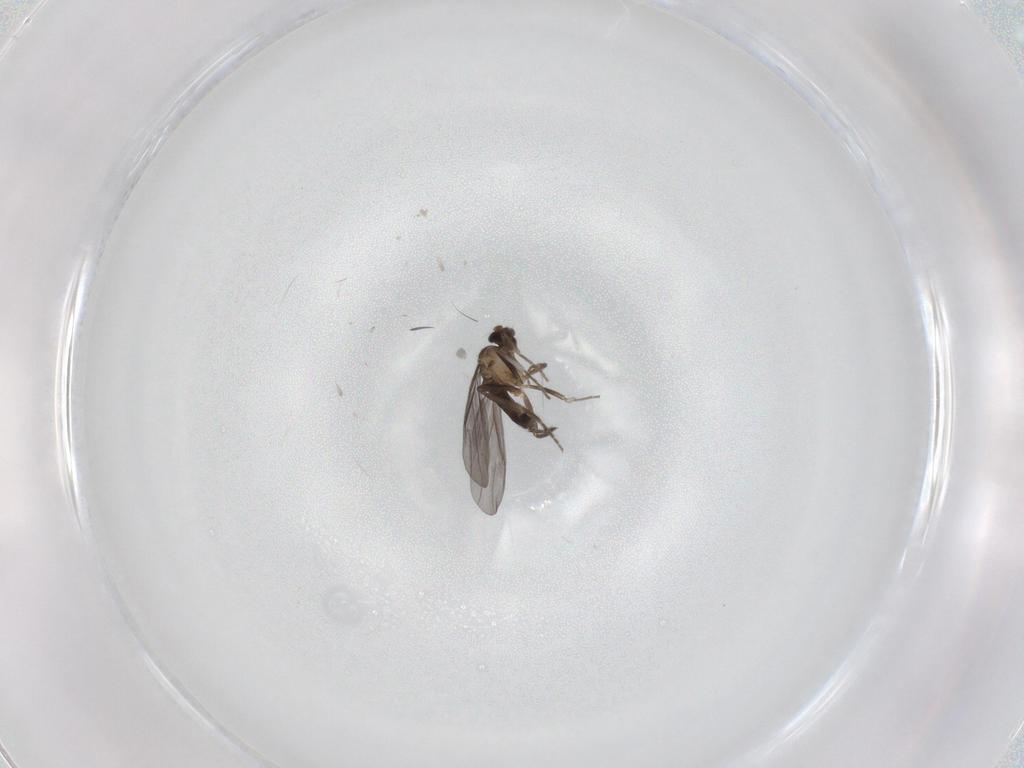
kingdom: Animalia
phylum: Arthropoda
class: Insecta
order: Diptera
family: Phoridae
